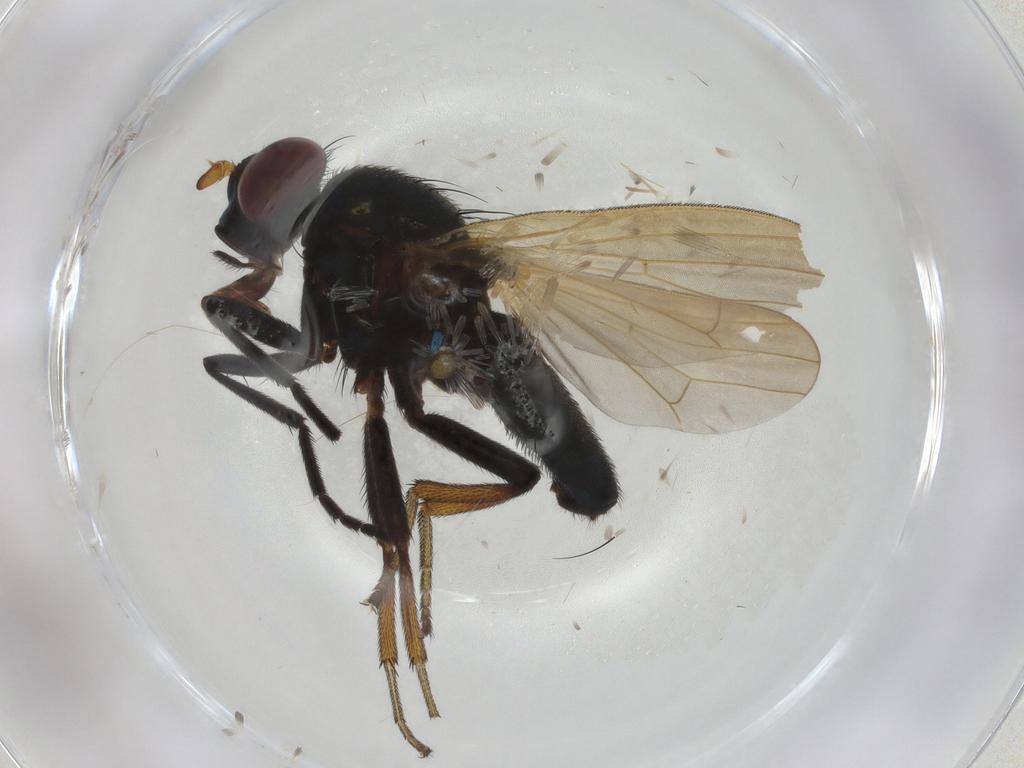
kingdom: Animalia
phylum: Arthropoda
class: Insecta
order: Diptera
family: Lauxaniidae
